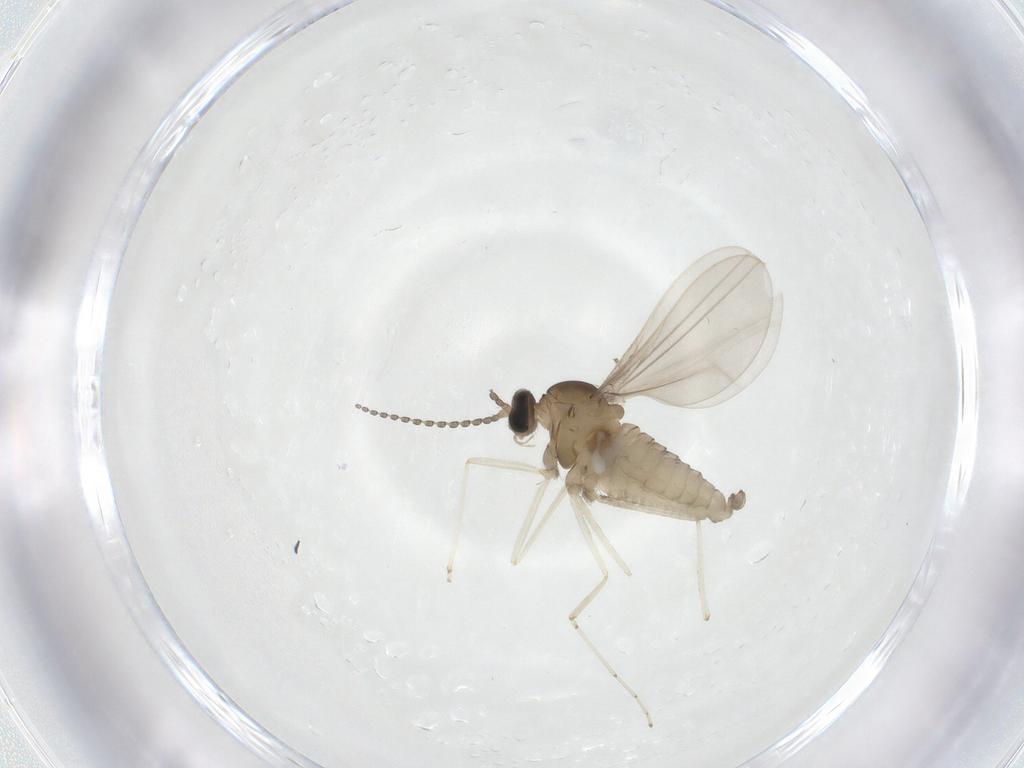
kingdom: Animalia
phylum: Arthropoda
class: Insecta
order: Diptera
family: Cecidomyiidae
